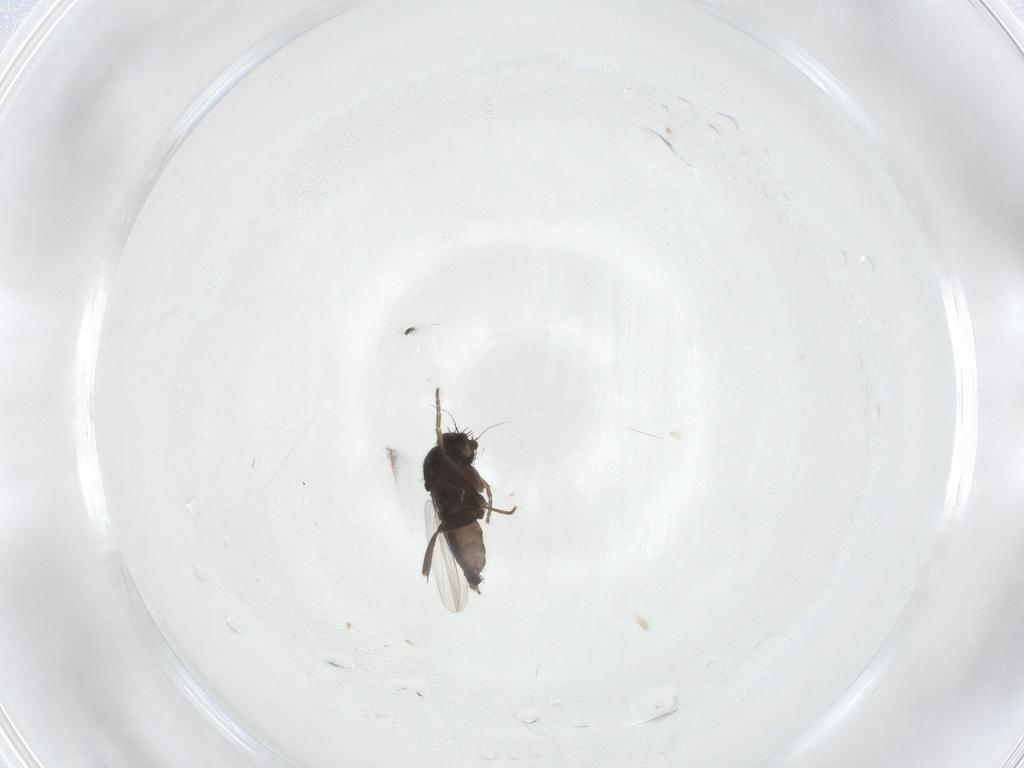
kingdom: Animalia
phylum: Arthropoda
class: Insecta
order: Diptera
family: Phoridae
